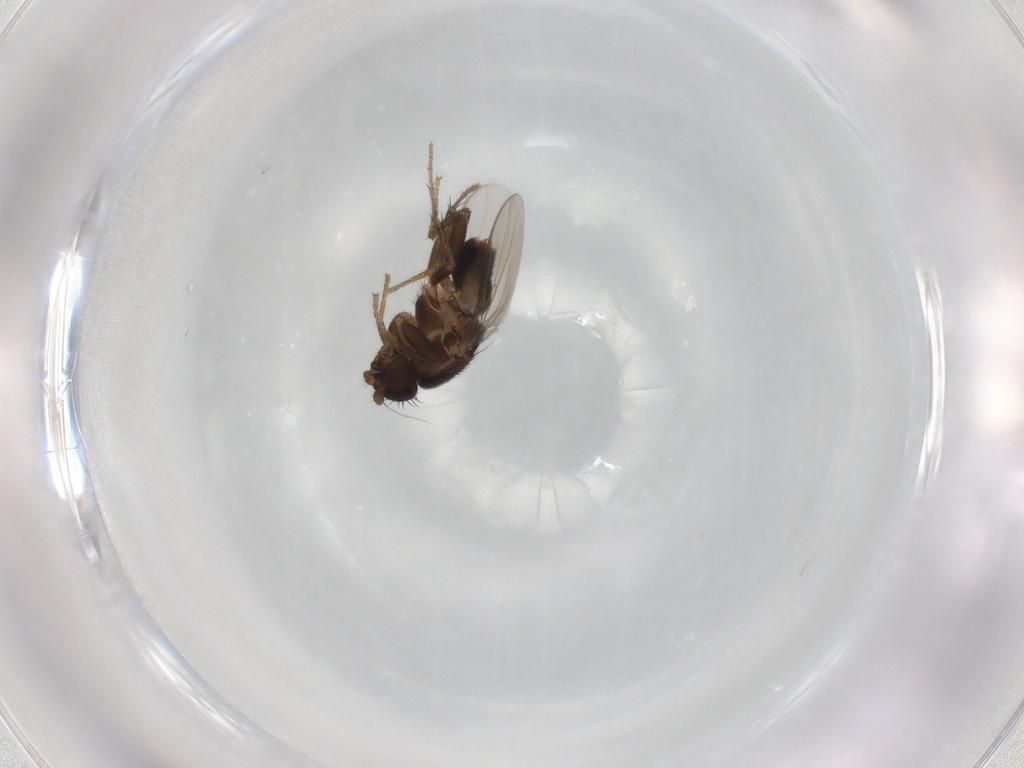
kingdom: Animalia
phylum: Arthropoda
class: Insecta
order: Diptera
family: Sphaeroceridae
